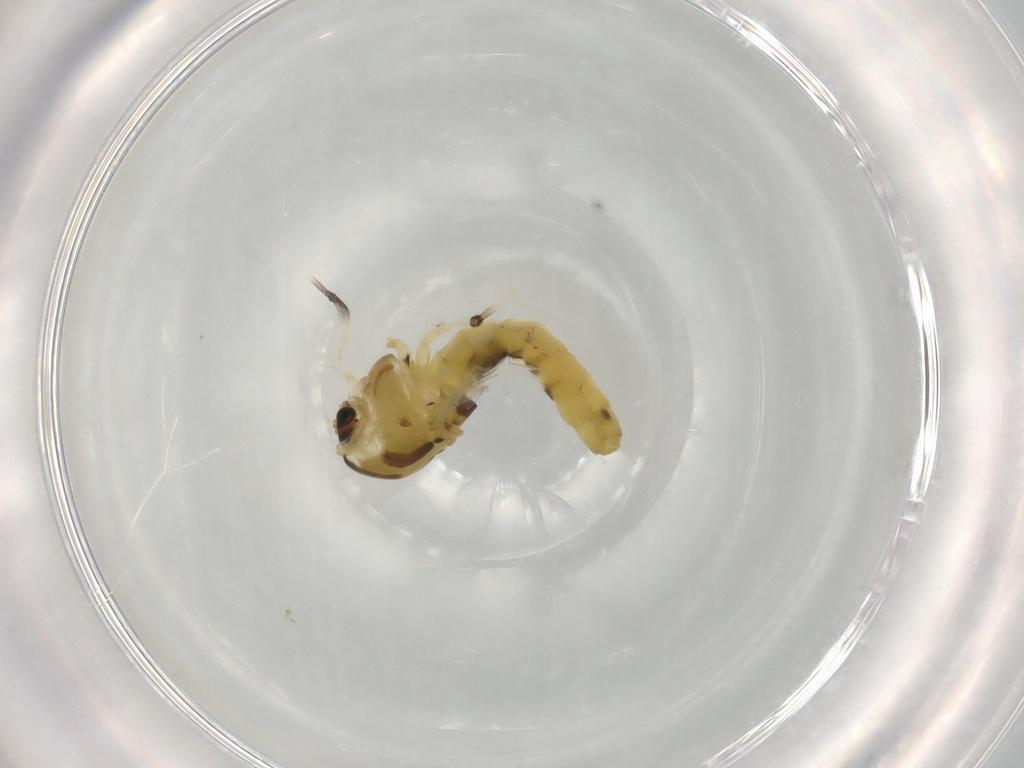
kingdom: Animalia
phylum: Arthropoda
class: Insecta
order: Diptera
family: Chironomidae
